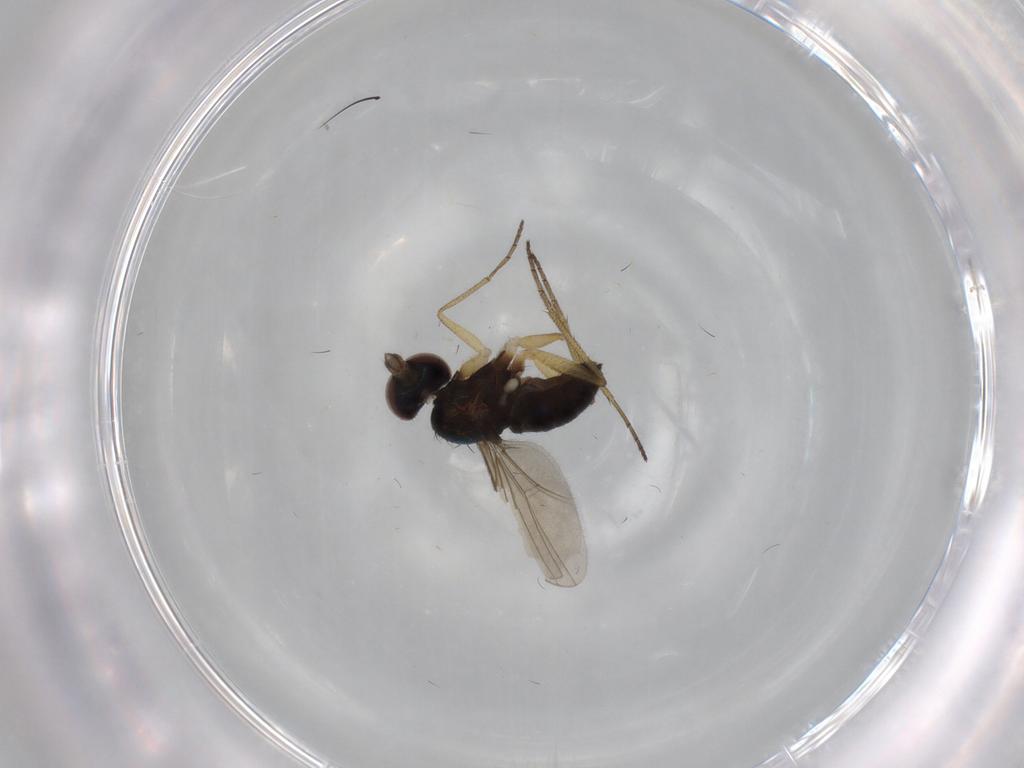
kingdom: Animalia
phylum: Arthropoda
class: Insecta
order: Diptera
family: Dolichopodidae
